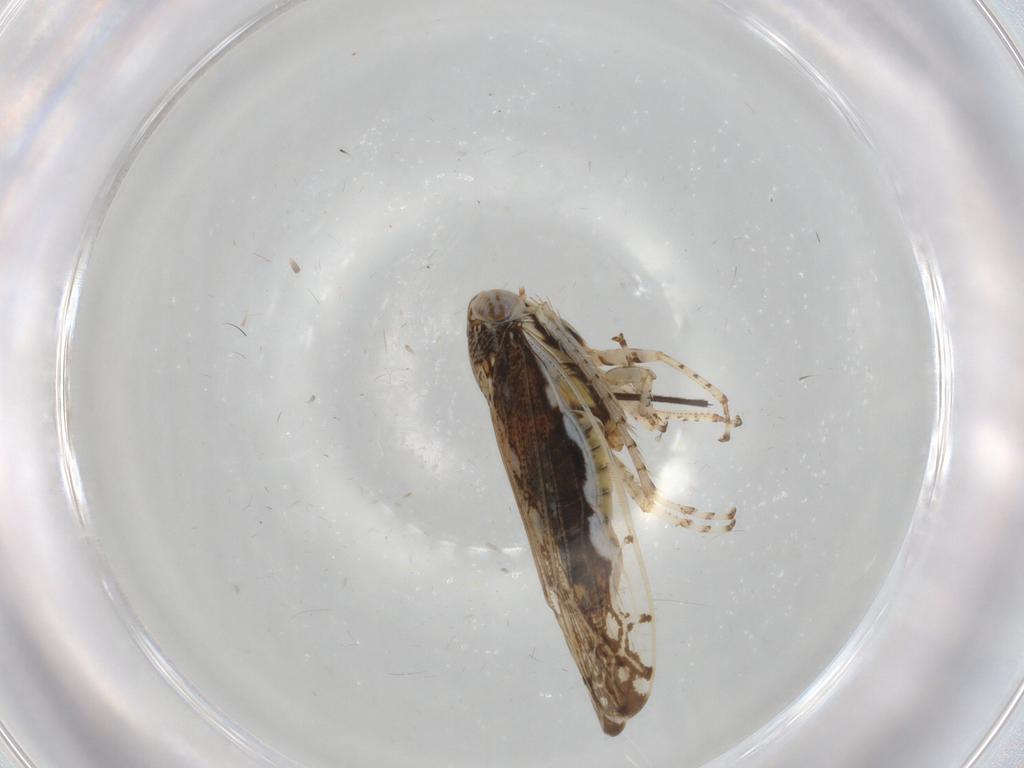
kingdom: Animalia
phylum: Arthropoda
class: Insecta
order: Hemiptera
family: Cicadellidae
